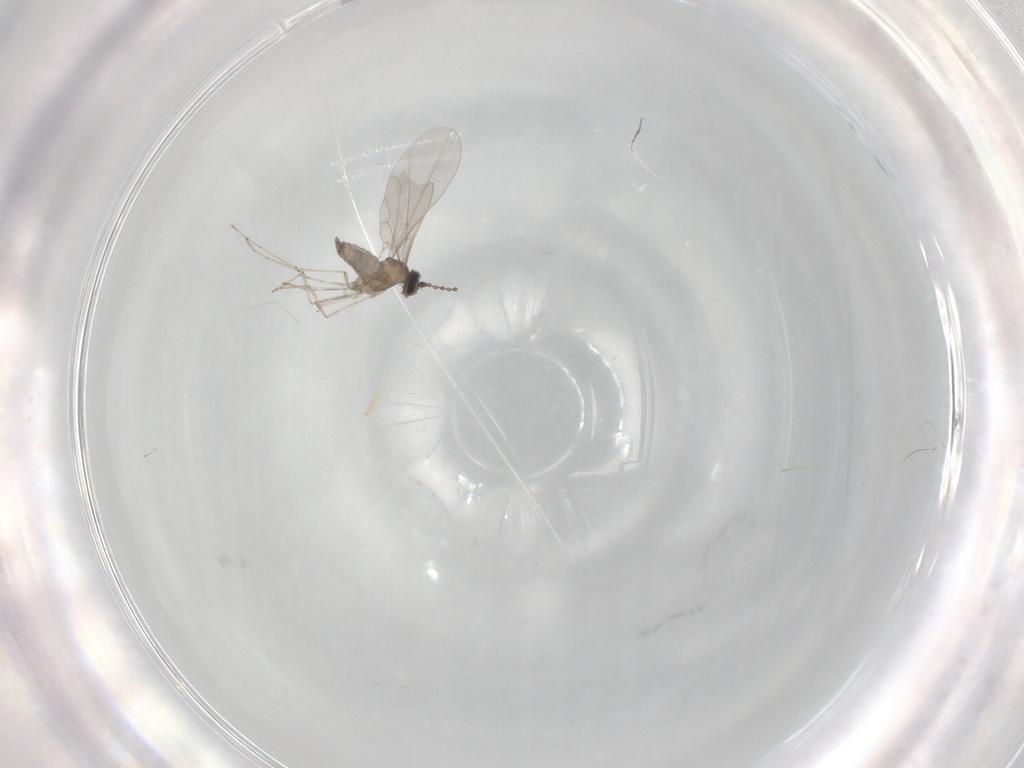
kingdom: Animalia
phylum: Arthropoda
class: Insecta
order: Diptera
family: Cecidomyiidae
